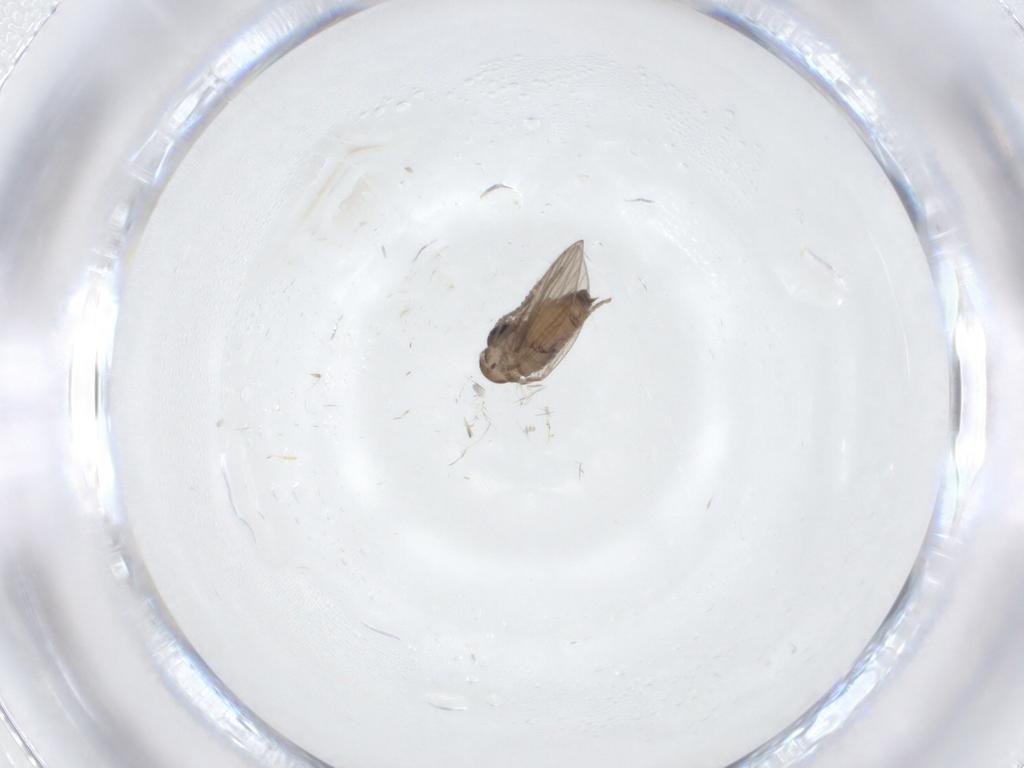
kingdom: Animalia
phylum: Arthropoda
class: Insecta
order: Diptera
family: Psychodidae
